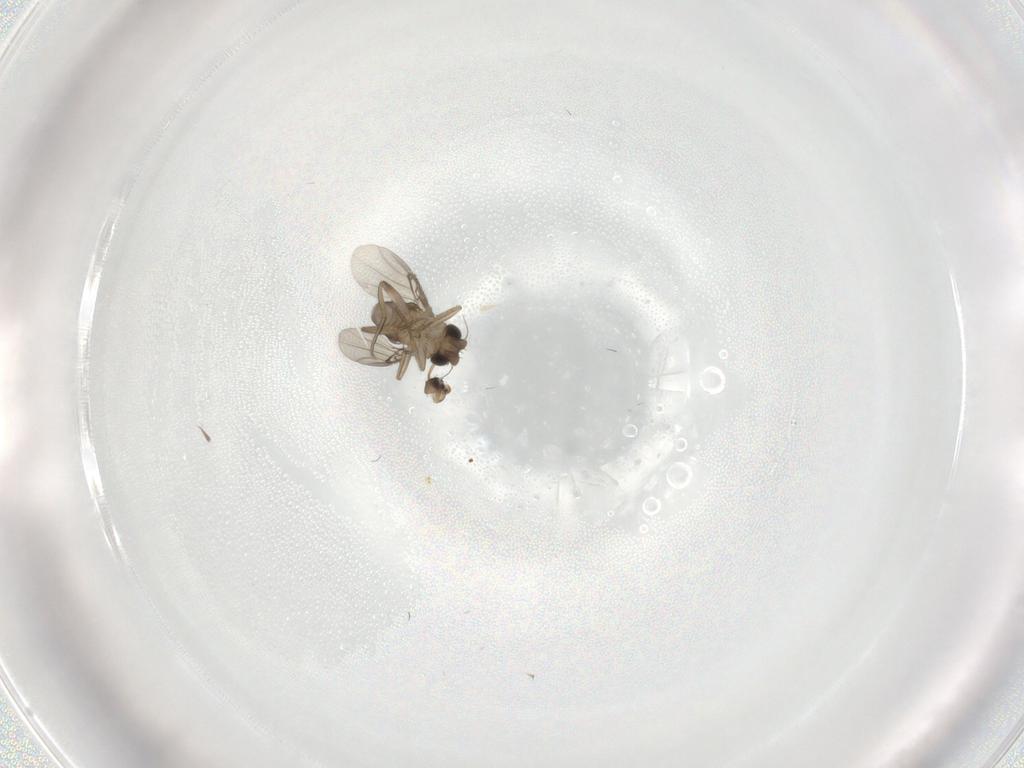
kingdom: Animalia
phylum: Arthropoda
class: Insecta
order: Diptera
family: Phoridae
